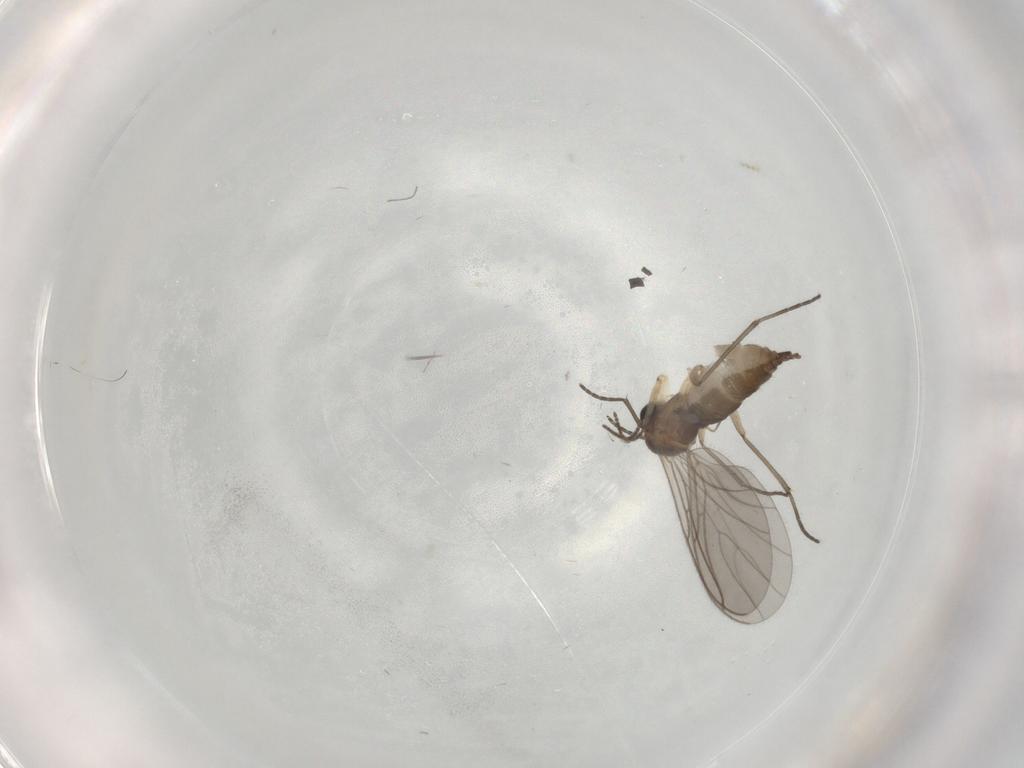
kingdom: Animalia
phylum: Arthropoda
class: Insecta
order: Diptera
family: Sciaridae
